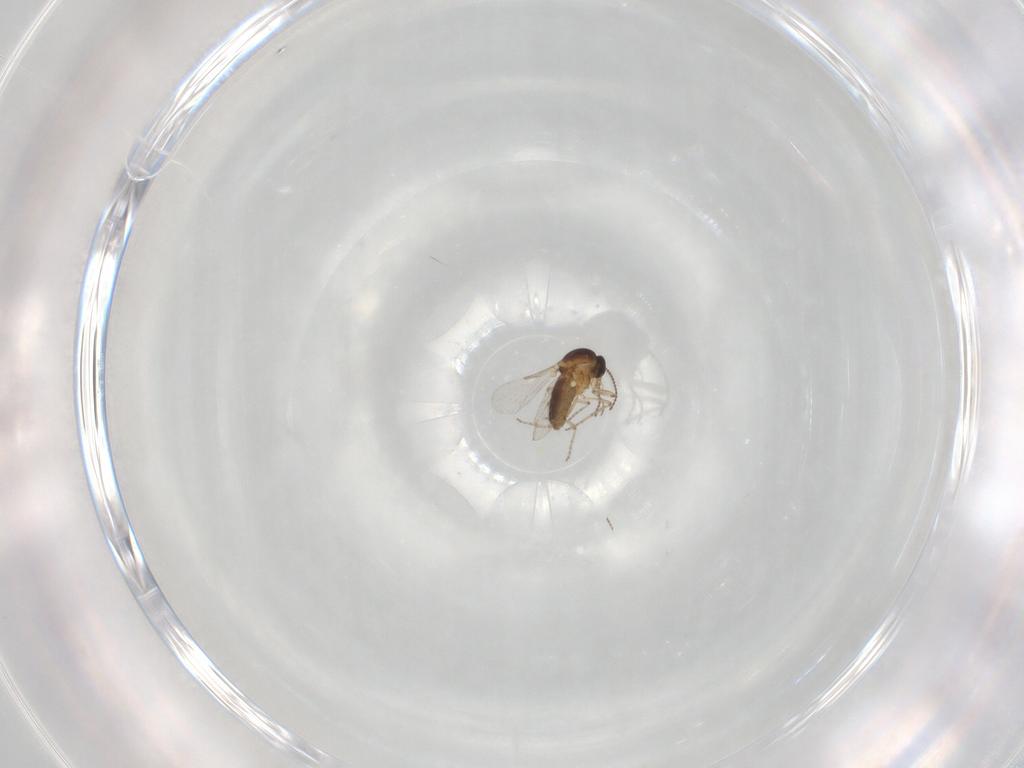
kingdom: Animalia
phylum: Arthropoda
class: Insecta
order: Diptera
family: Ceratopogonidae
